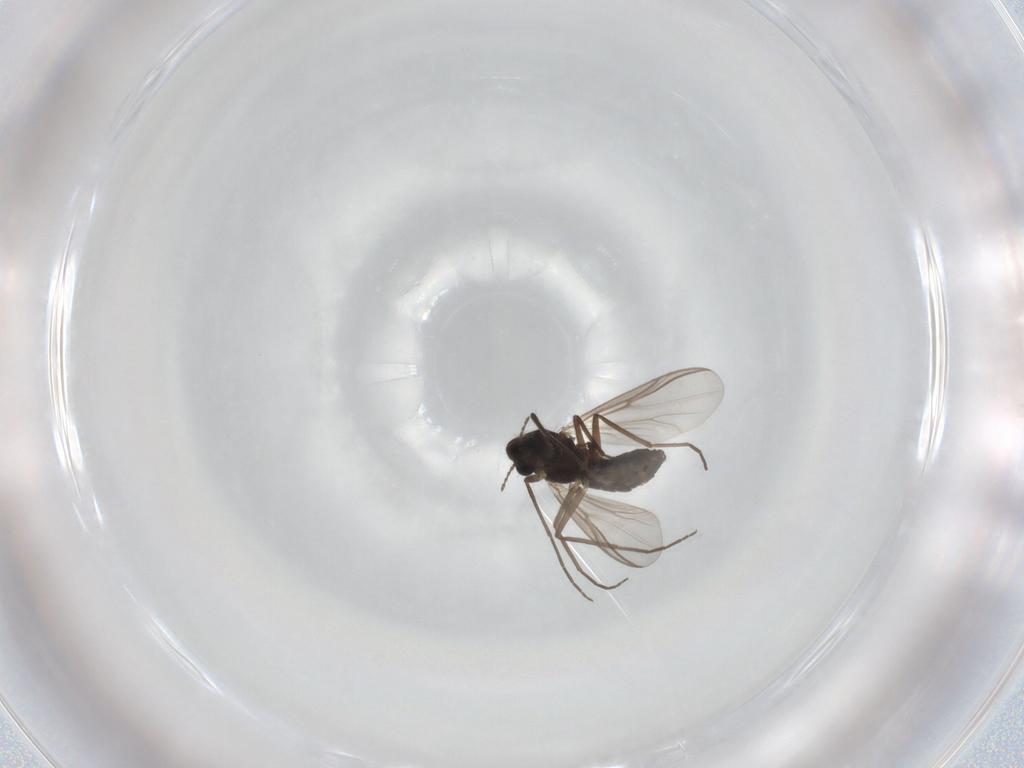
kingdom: Animalia
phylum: Arthropoda
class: Insecta
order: Diptera
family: Chironomidae
